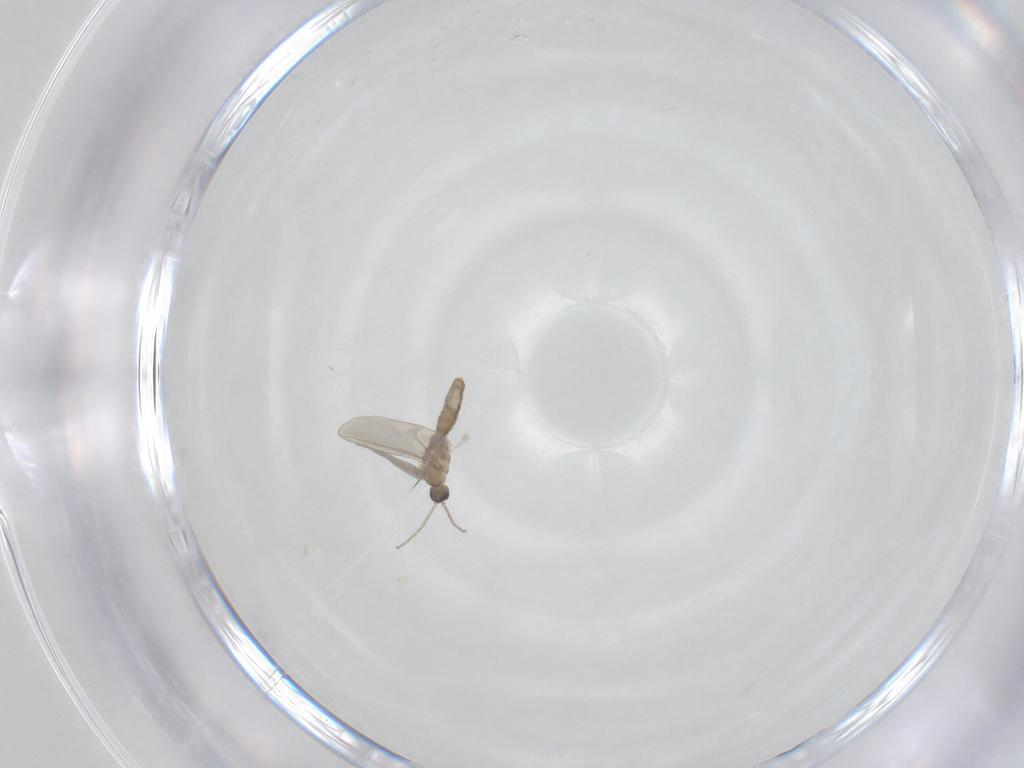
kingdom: Animalia
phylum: Arthropoda
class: Insecta
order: Diptera
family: Cecidomyiidae
